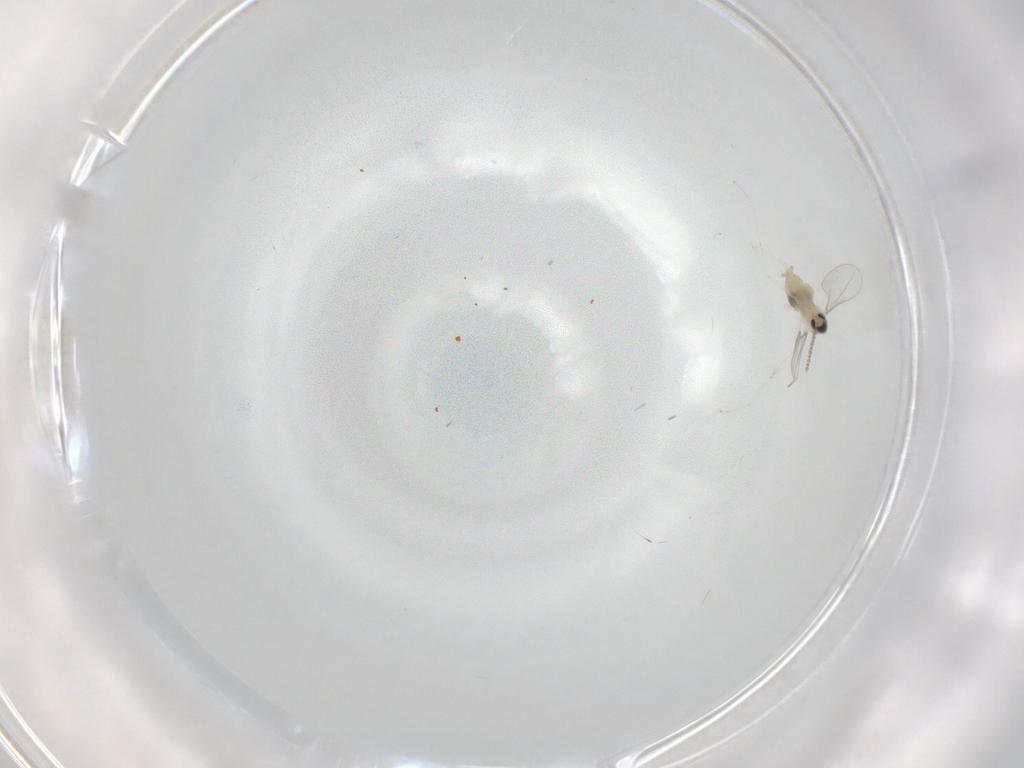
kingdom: Animalia
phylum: Arthropoda
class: Insecta
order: Diptera
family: Cecidomyiidae
